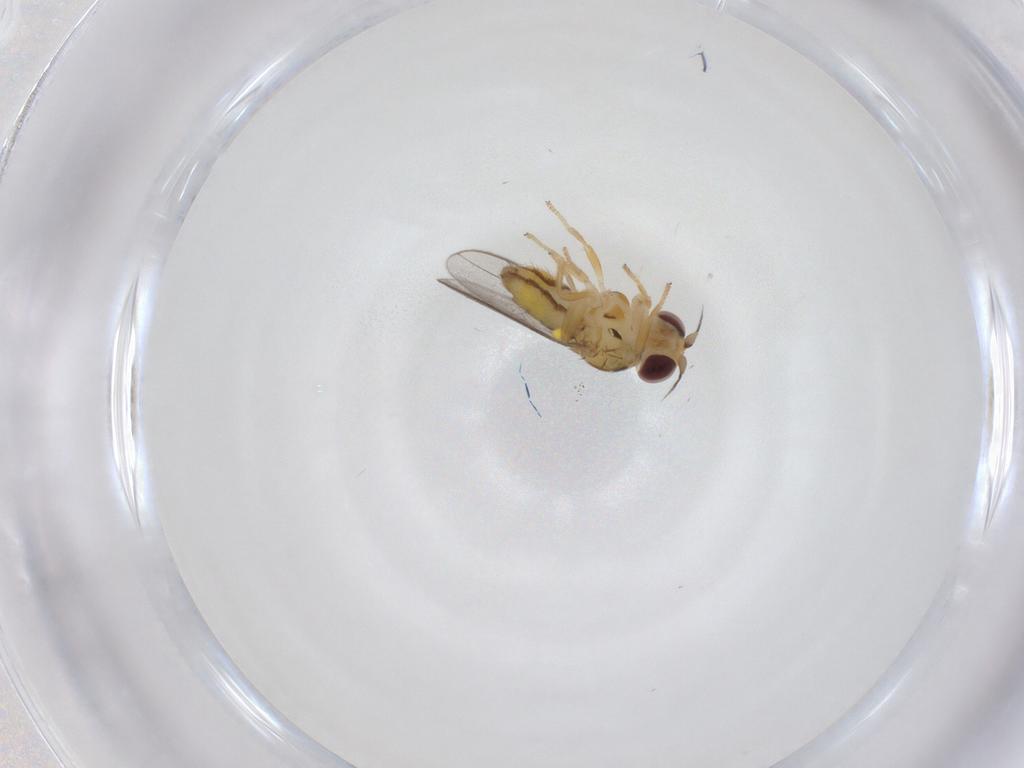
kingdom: Animalia
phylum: Arthropoda
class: Insecta
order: Diptera
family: Chloropidae
